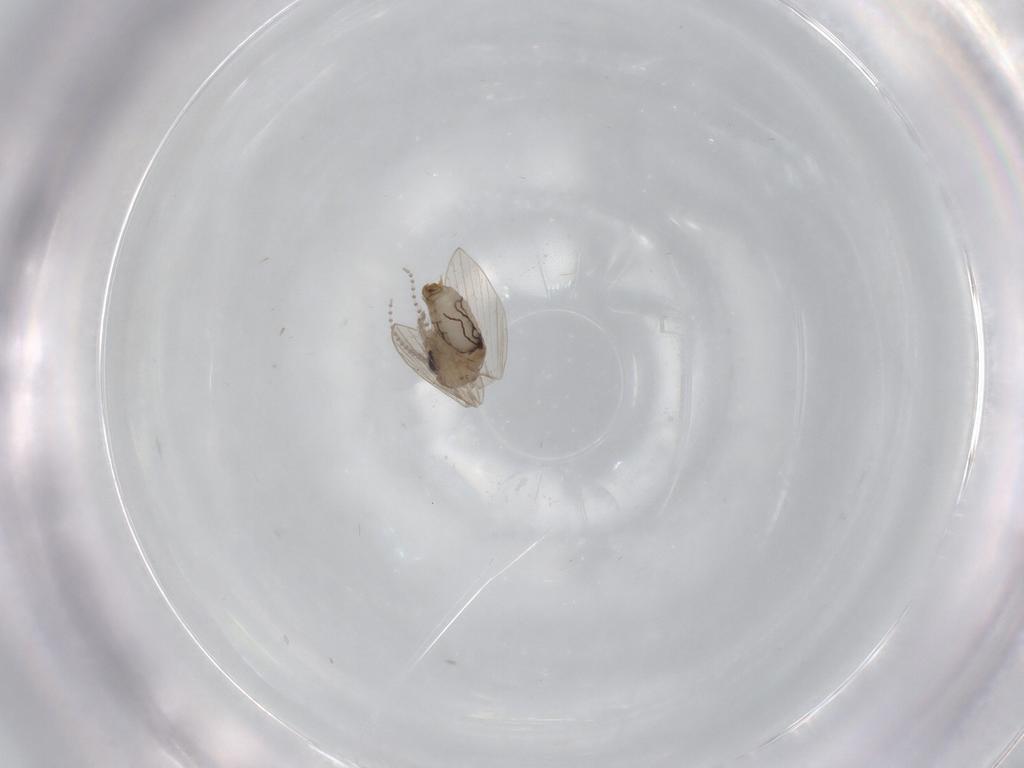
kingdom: Animalia
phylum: Arthropoda
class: Insecta
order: Diptera
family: Psychodidae
